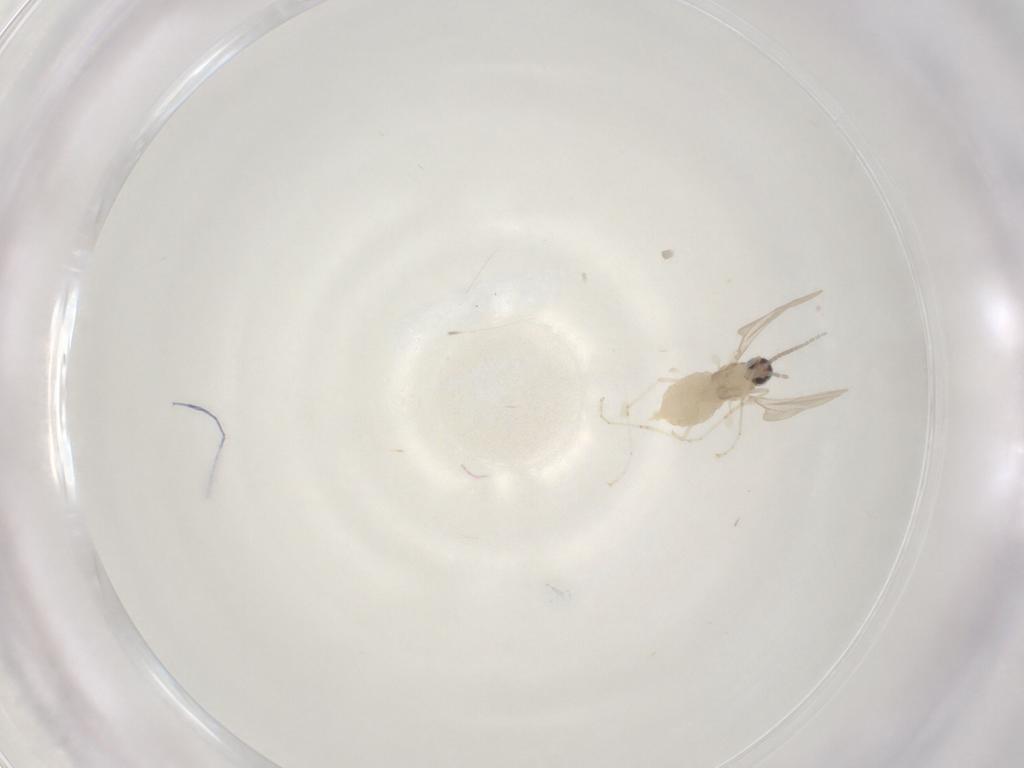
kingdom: Animalia
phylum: Arthropoda
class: Insecta
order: Diptera
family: Cecidomyiidae
